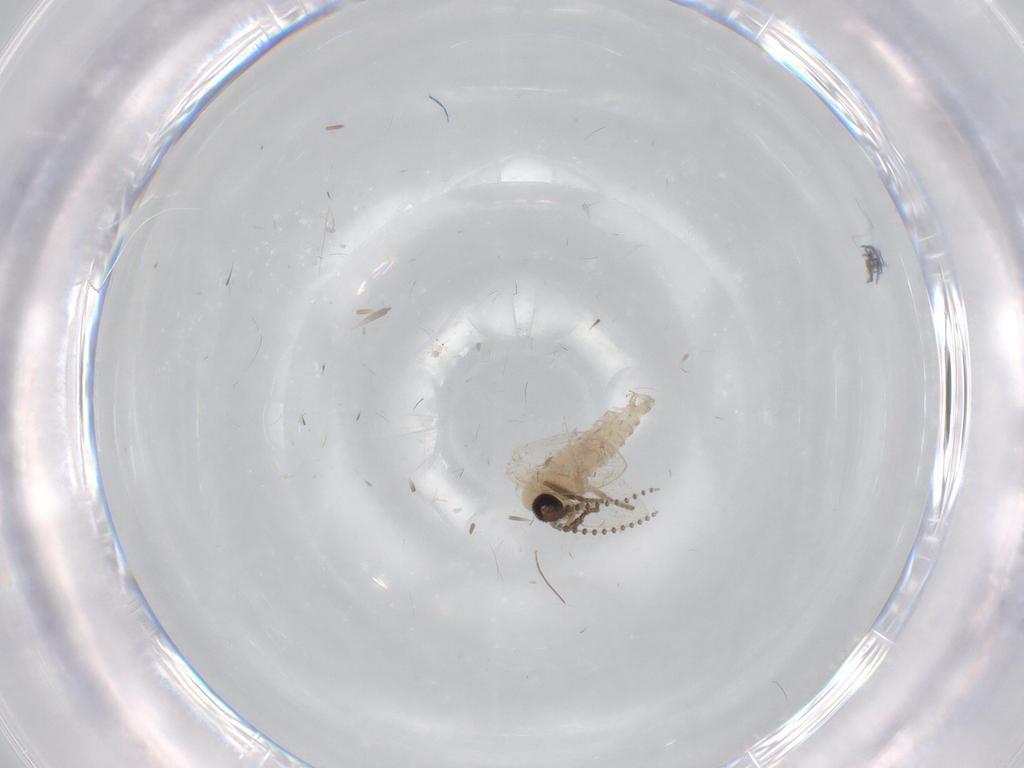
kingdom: Animalia
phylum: Arthropoda
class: Insecta
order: Diptera
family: Psychodidae
